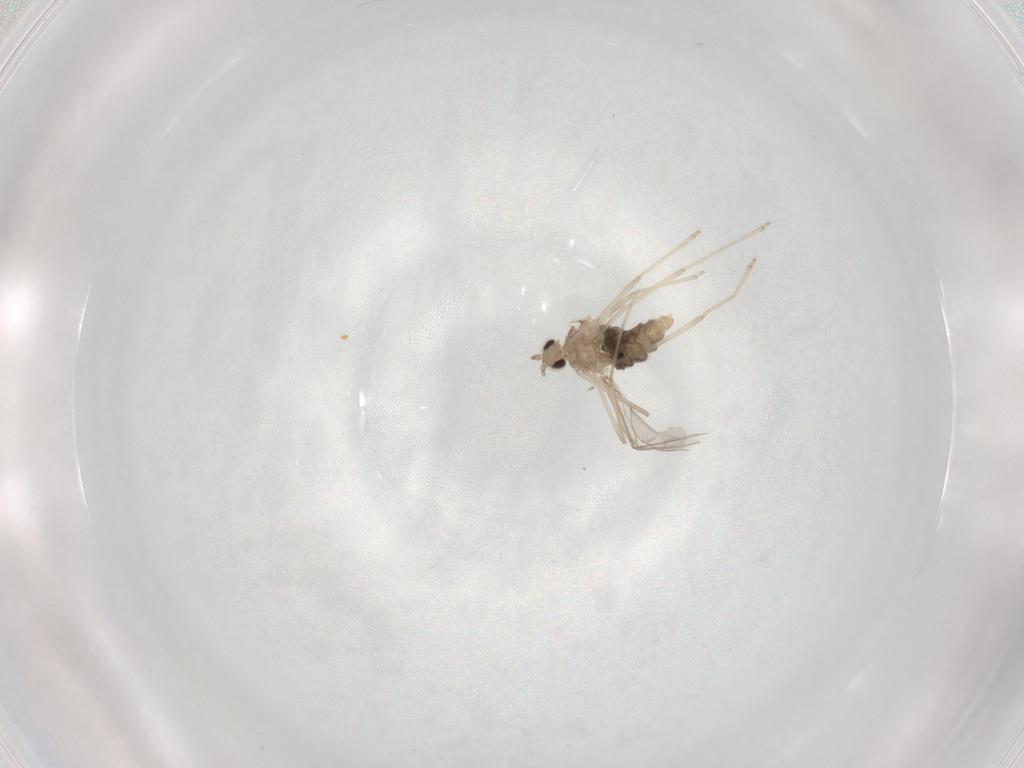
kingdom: Animalia
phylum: Arthropoda
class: Insecta
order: Diptera
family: Cecidomyiidae
